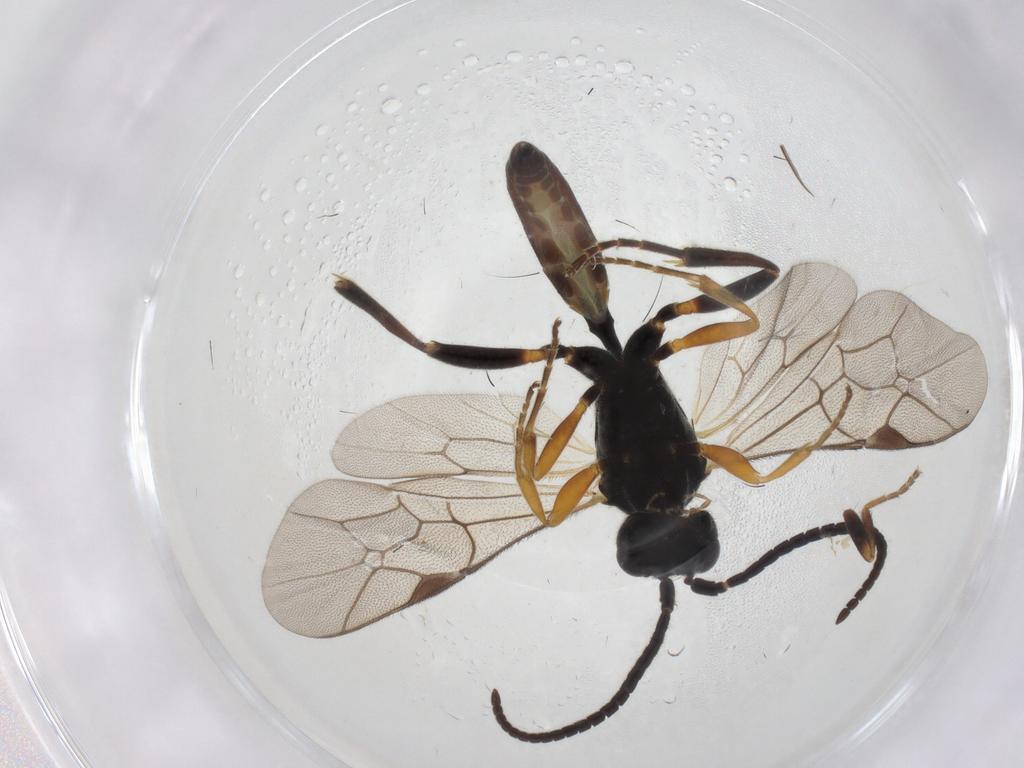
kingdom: Animalia
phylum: Arthropoda
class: Insecta
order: Hymenoptera
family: Ichneumonidae
